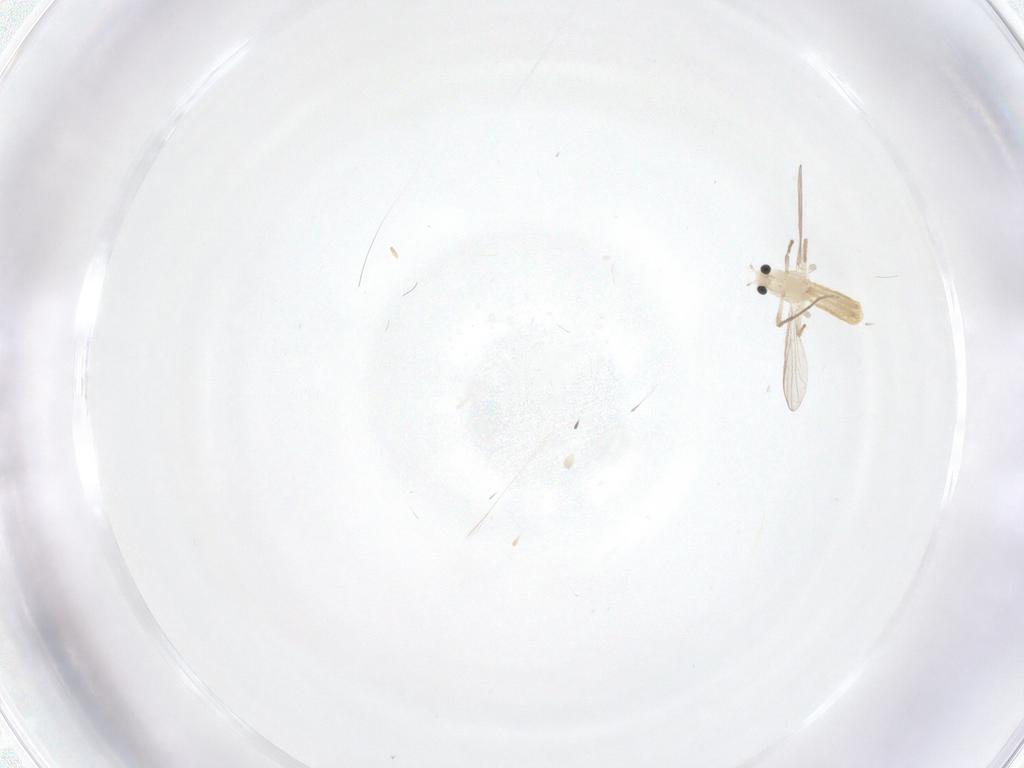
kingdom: Animalia
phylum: Arthropoda
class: Insecta
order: Diptera
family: Chironomidae
